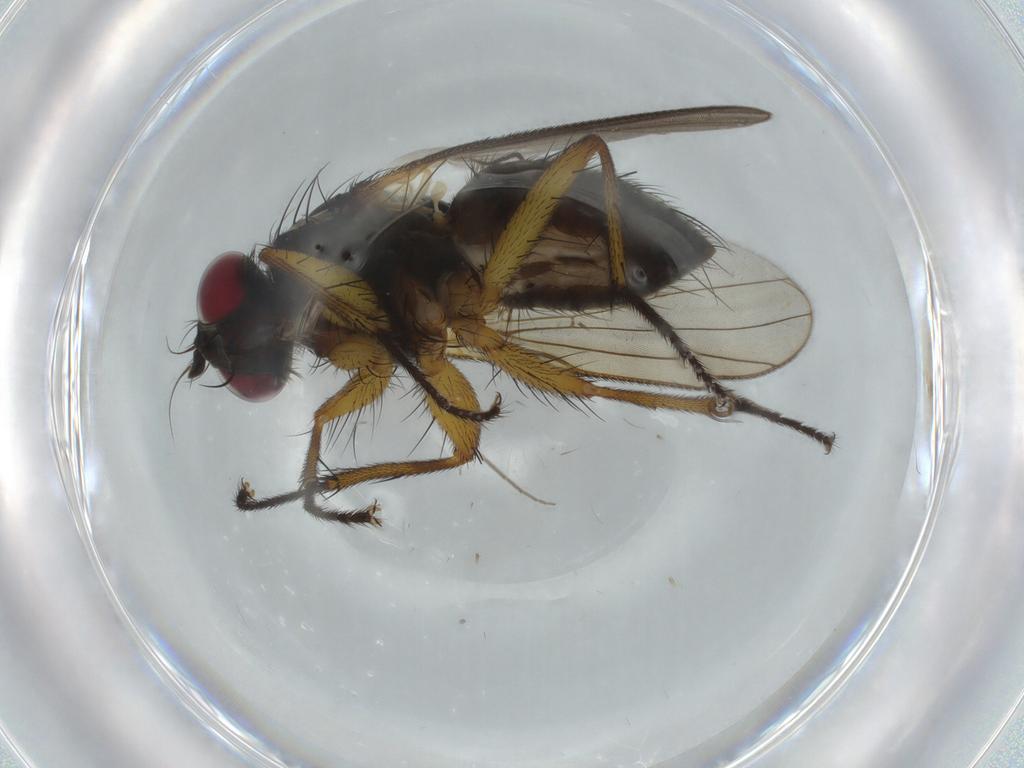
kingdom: Animalia
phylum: Arthropoda
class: Insecta
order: Diptera
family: Muscidae
